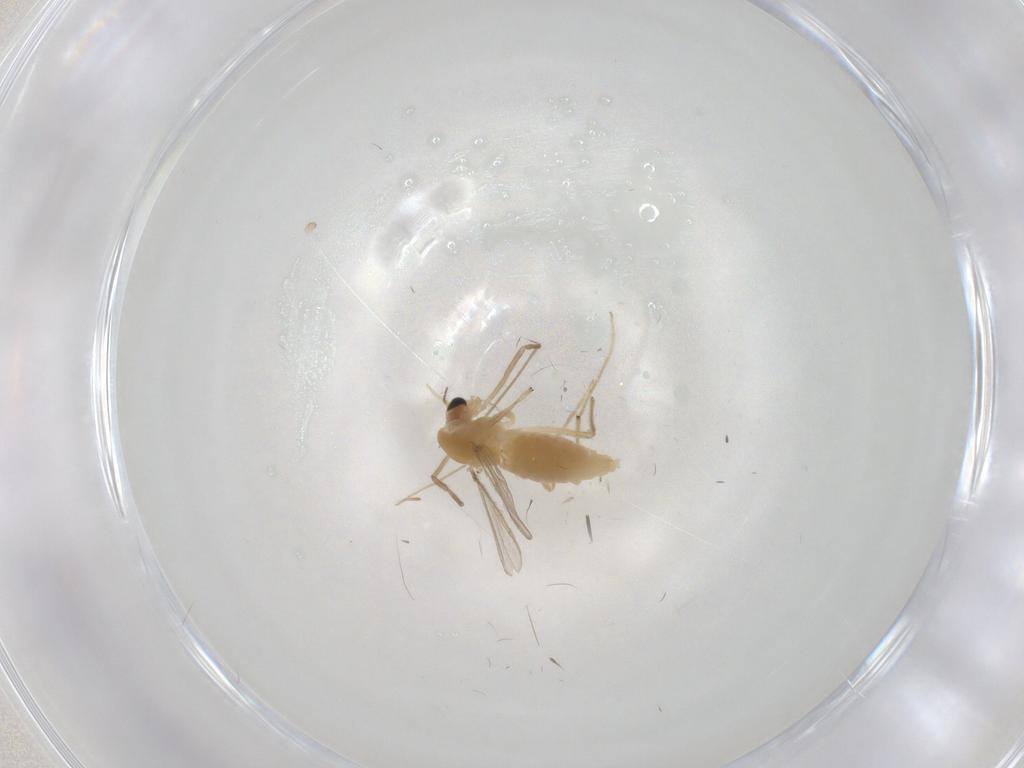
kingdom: Animalia
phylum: Arthropoda
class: Insecta
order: Diptera
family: Chironomidae
